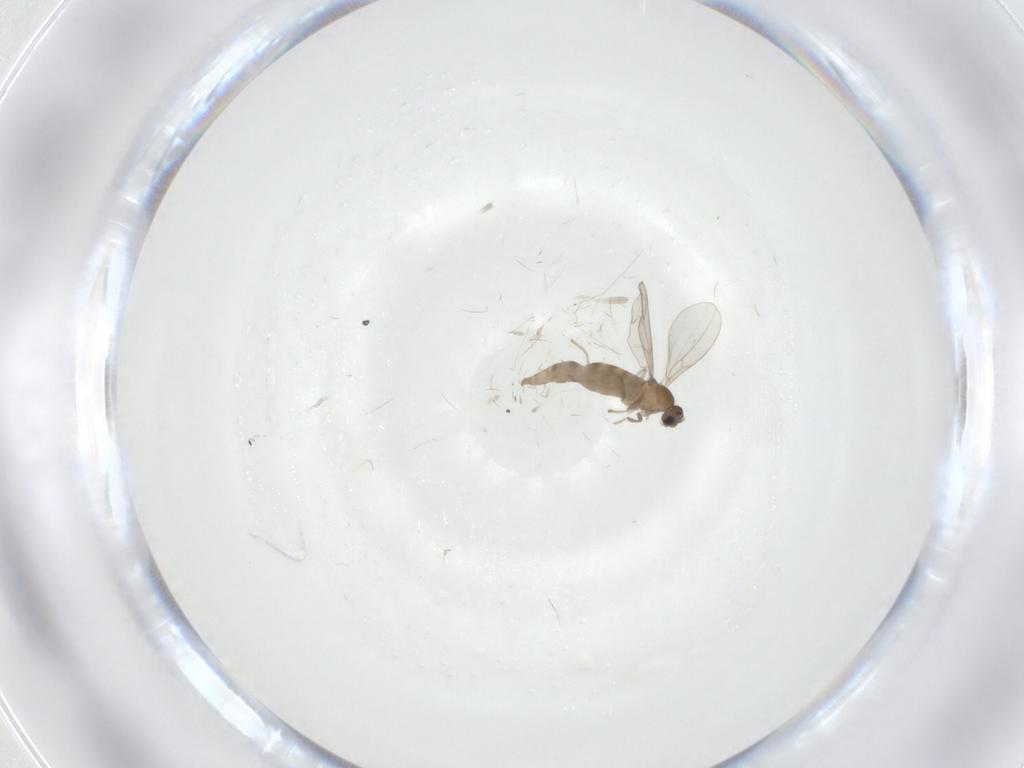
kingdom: Animalia
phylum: Arthropoda
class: Insecta
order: Diptera
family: Cecidomyiidae
